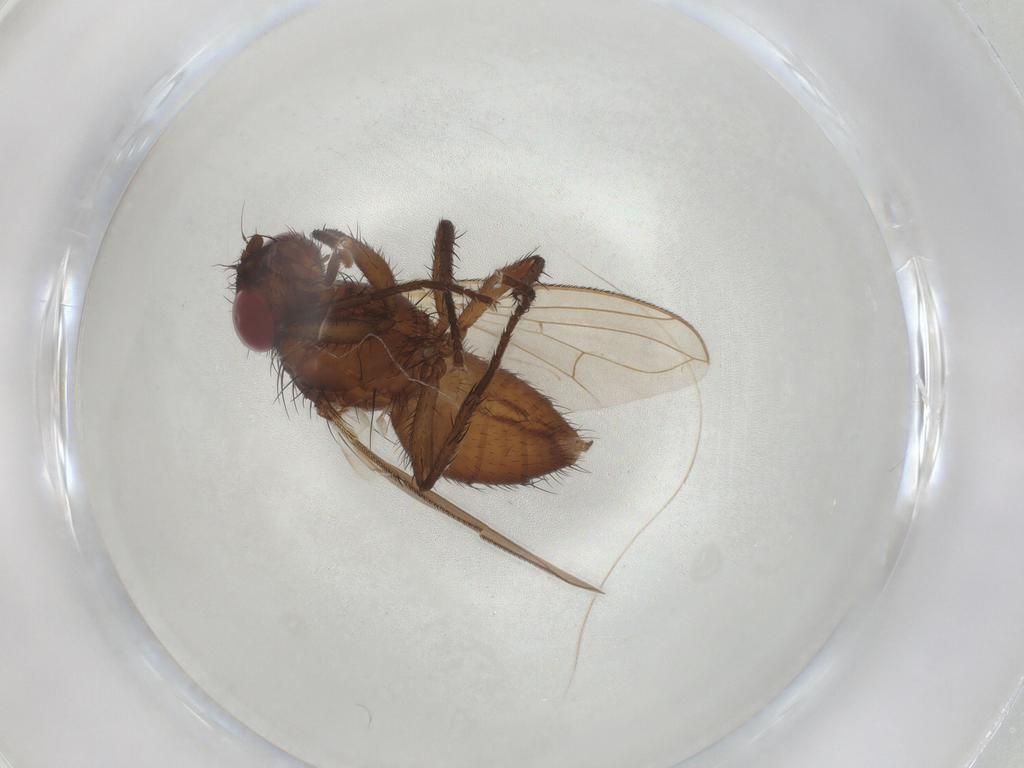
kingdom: Animalia
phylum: Arthropoda
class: Insecta
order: Diptera
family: Calliphoridae
